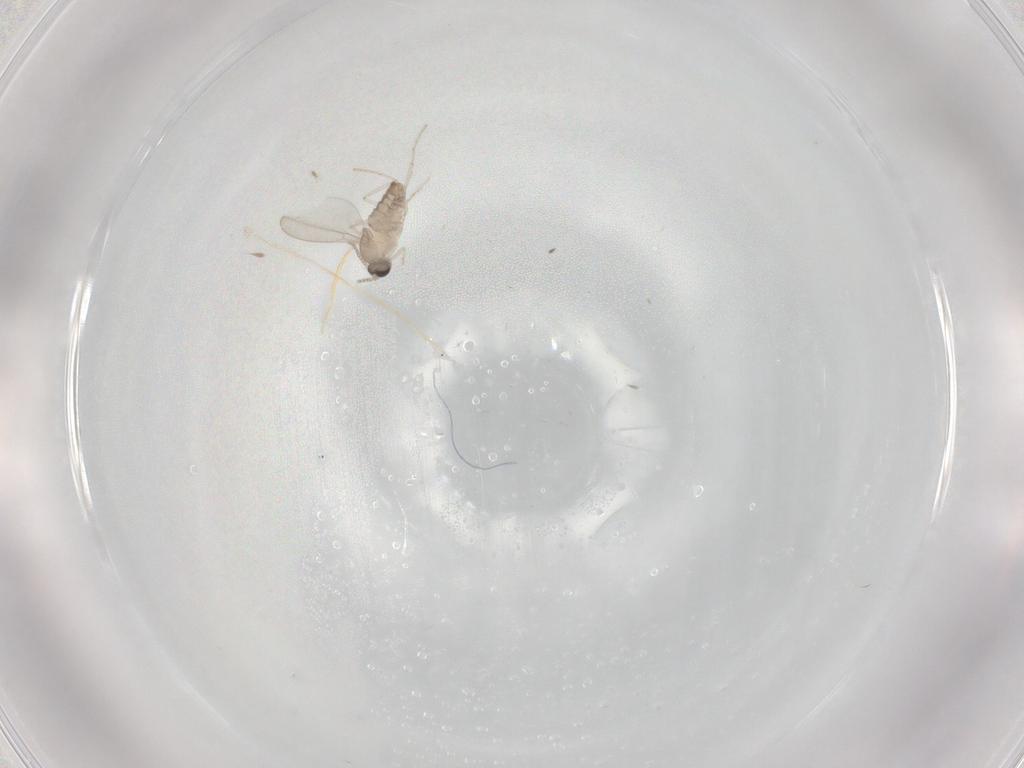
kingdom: Animalia
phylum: Arthropoda
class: Insecta
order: Diptera
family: Cecidomyiidae
